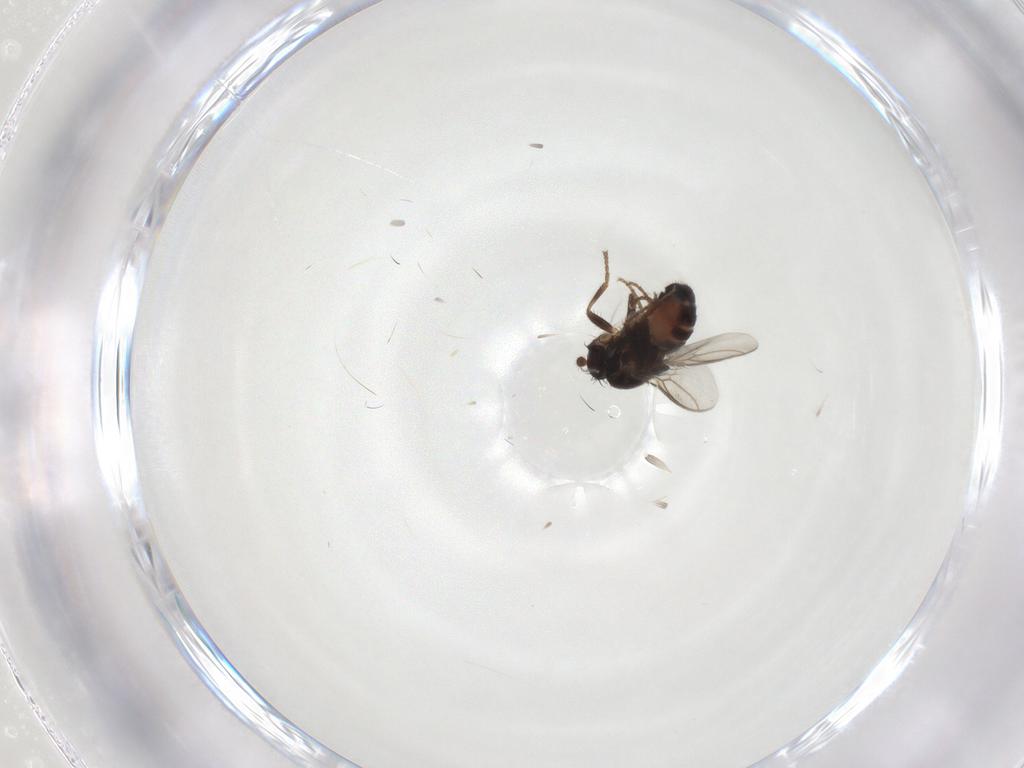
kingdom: Animalia
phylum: Arthropoda
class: Insecta
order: Diptera
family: Sphaeroceridae
